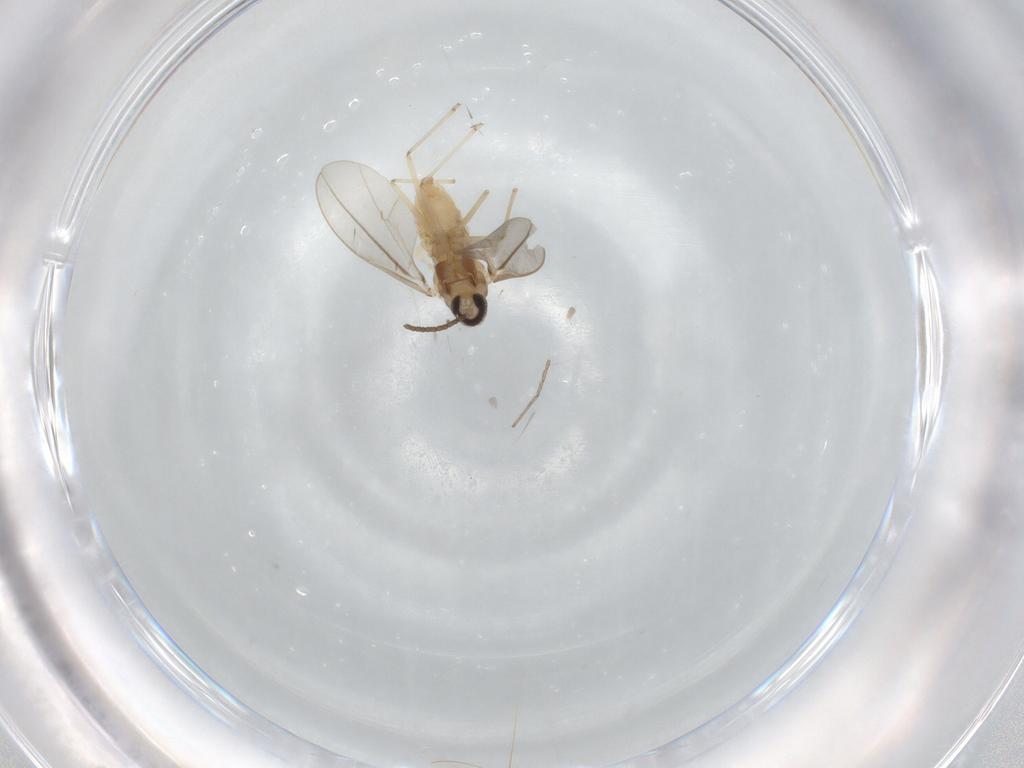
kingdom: Animalia
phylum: Arthropoda
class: Insecta
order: Diptera
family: Cecidomyiidae
